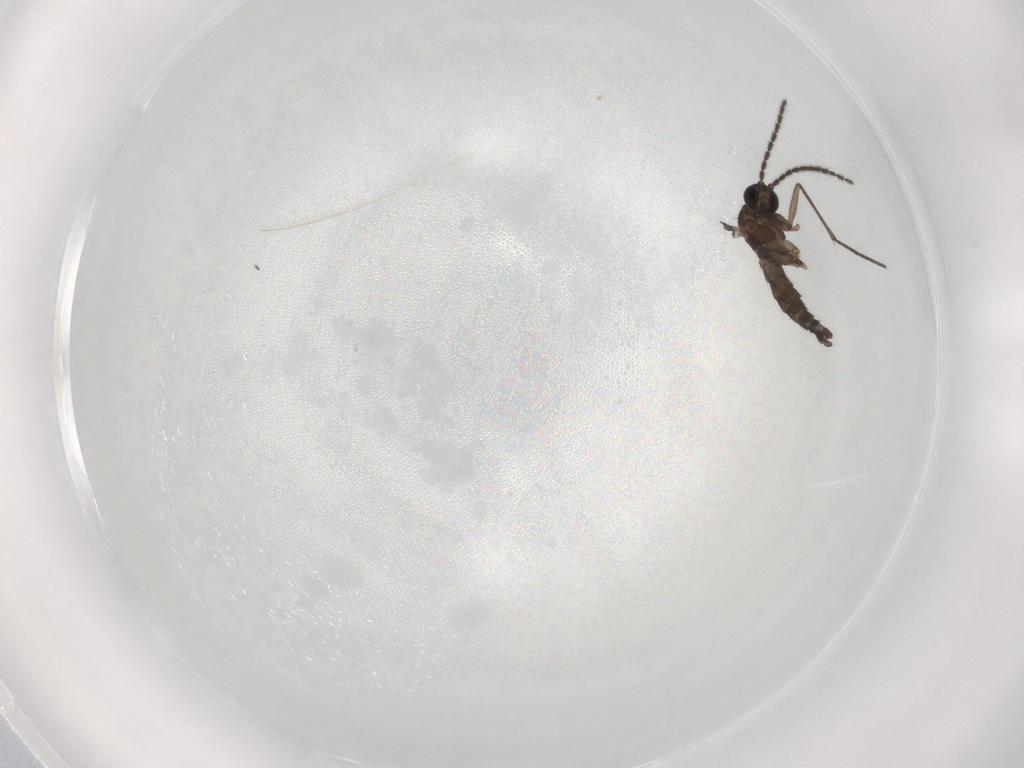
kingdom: Animalia
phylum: Arthropoda
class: Insecta
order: Diptera
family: Sciaridae
